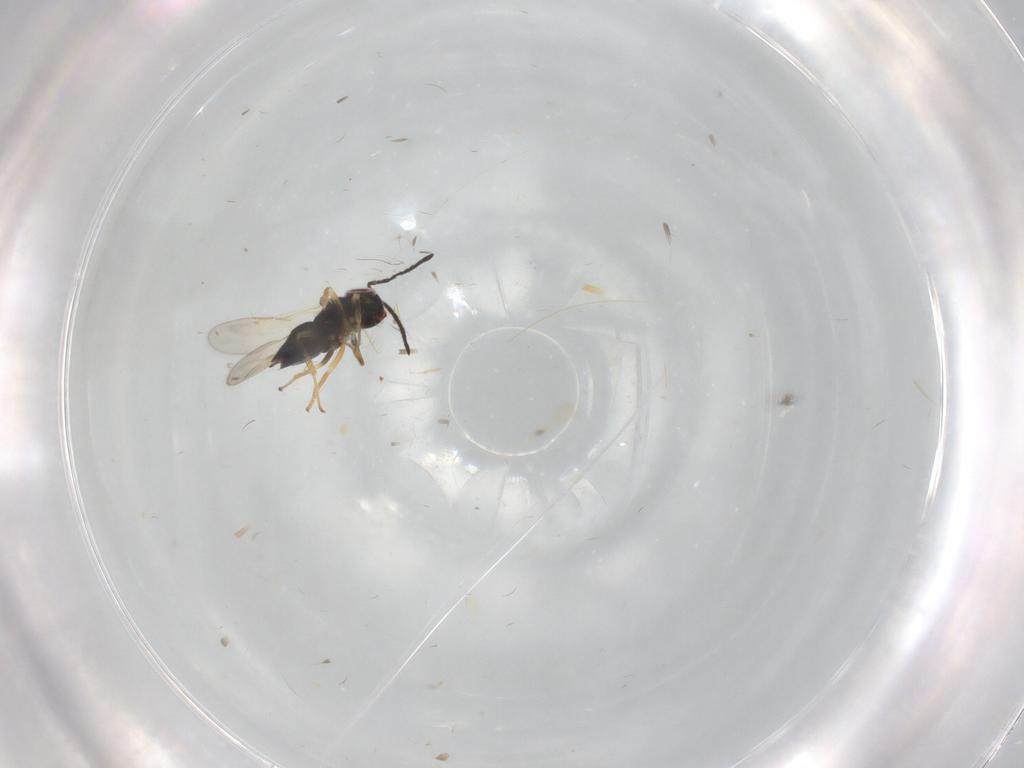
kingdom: Animalia
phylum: Arthropoda
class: Insecta
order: Hymenoptera
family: Encyrtidae
